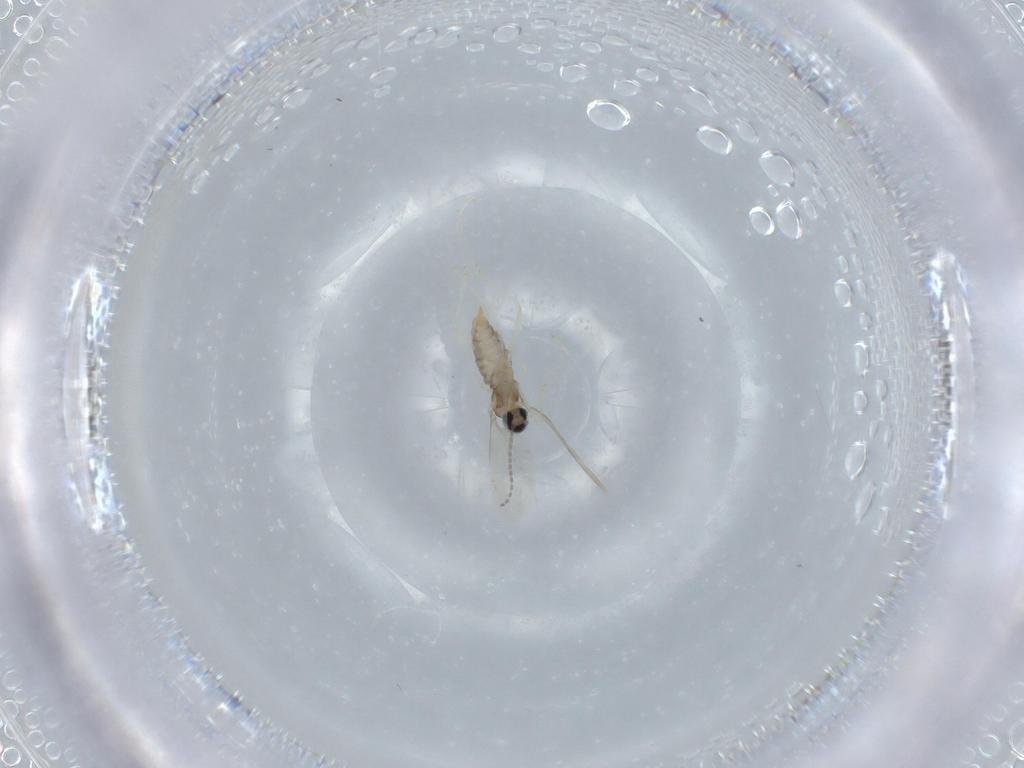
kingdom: Animalia
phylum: Arthropoda
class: Insecta
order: Diptera
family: Cecidomyiidae
